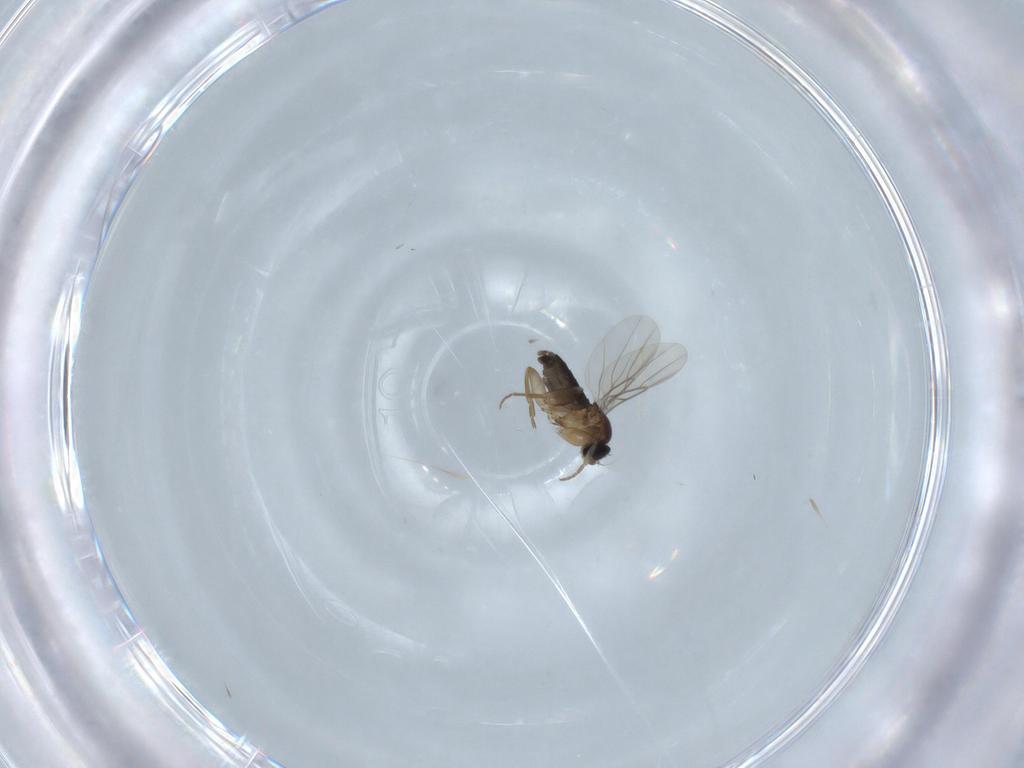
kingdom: Animalia
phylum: Arthropoda
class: Insecta
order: Diptera
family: Phoridae
